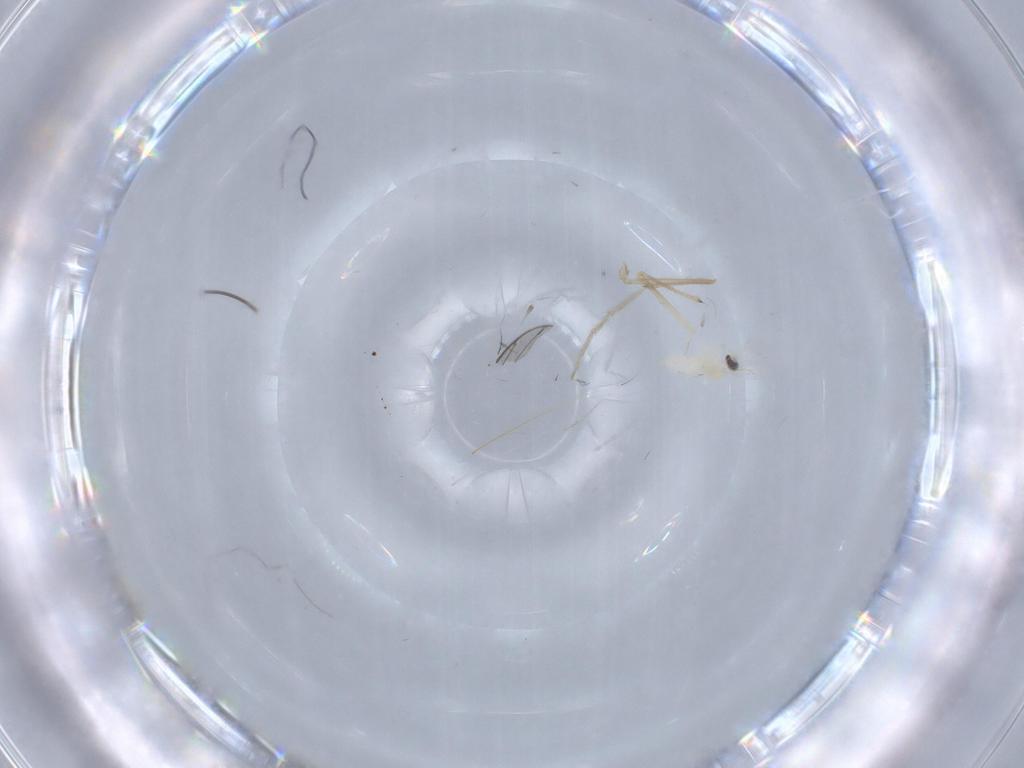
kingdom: Animalia
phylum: Arthropoda
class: Insecta
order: Diptera
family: Cecidomyiidae
